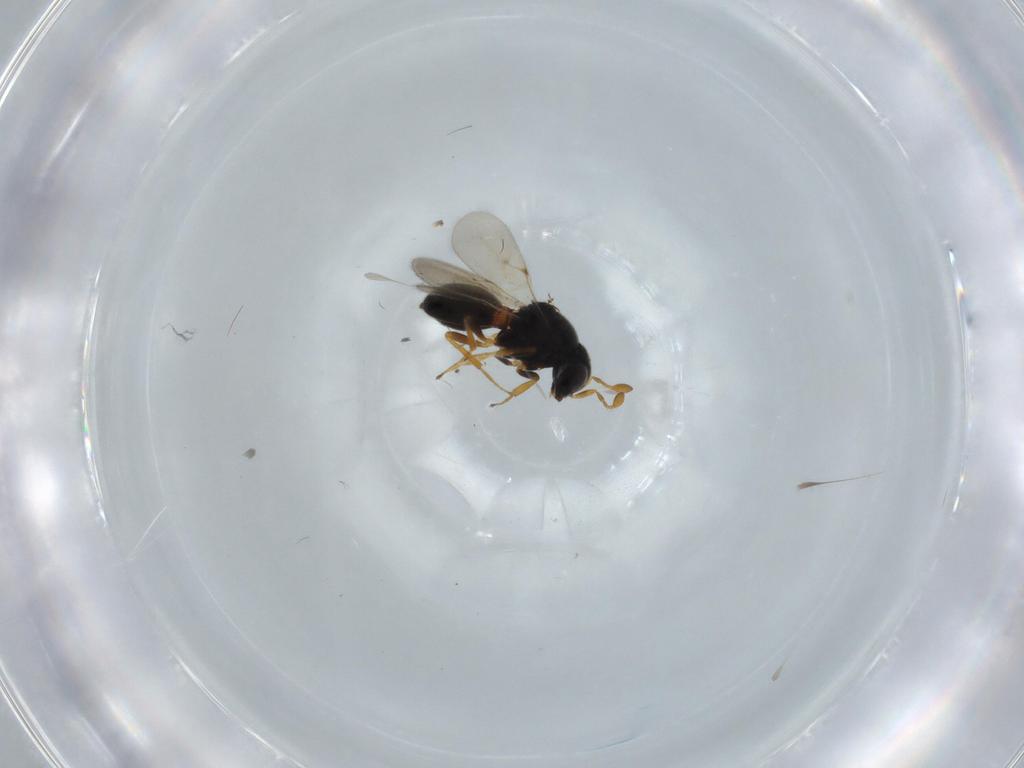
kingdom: Animalia
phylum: Arthropoda
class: Insecta
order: Hymenoptera
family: Scelionidae
